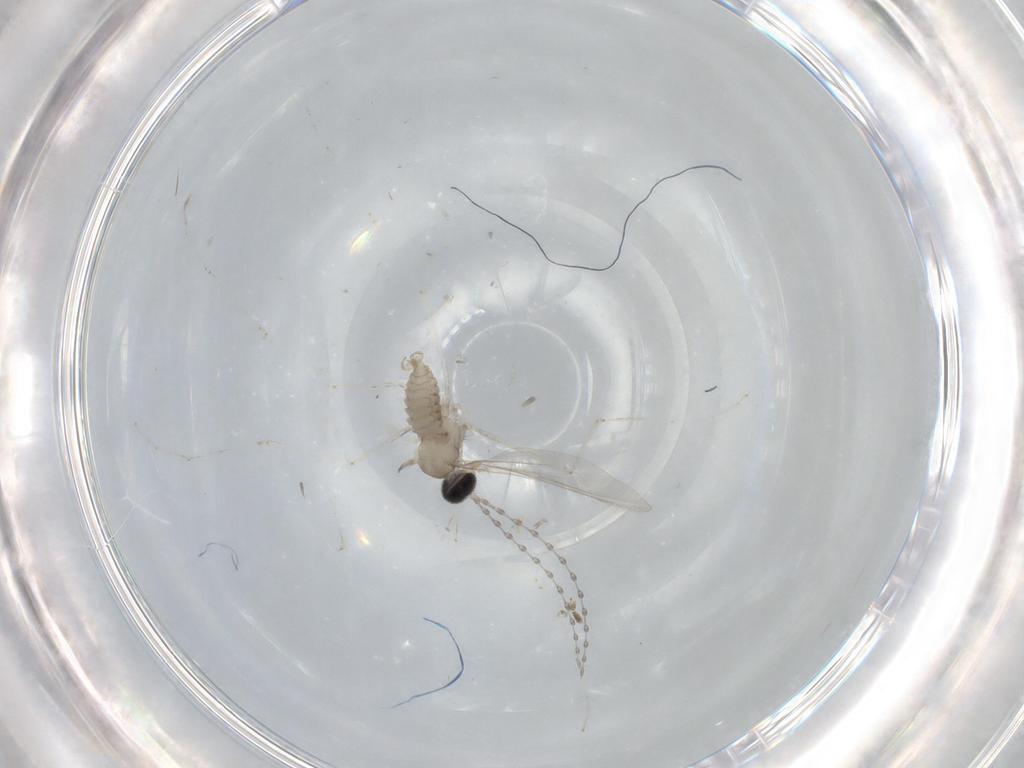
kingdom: Animalia
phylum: Arthropoda
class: Insecta
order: Diptera
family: Cecidomyiidae
